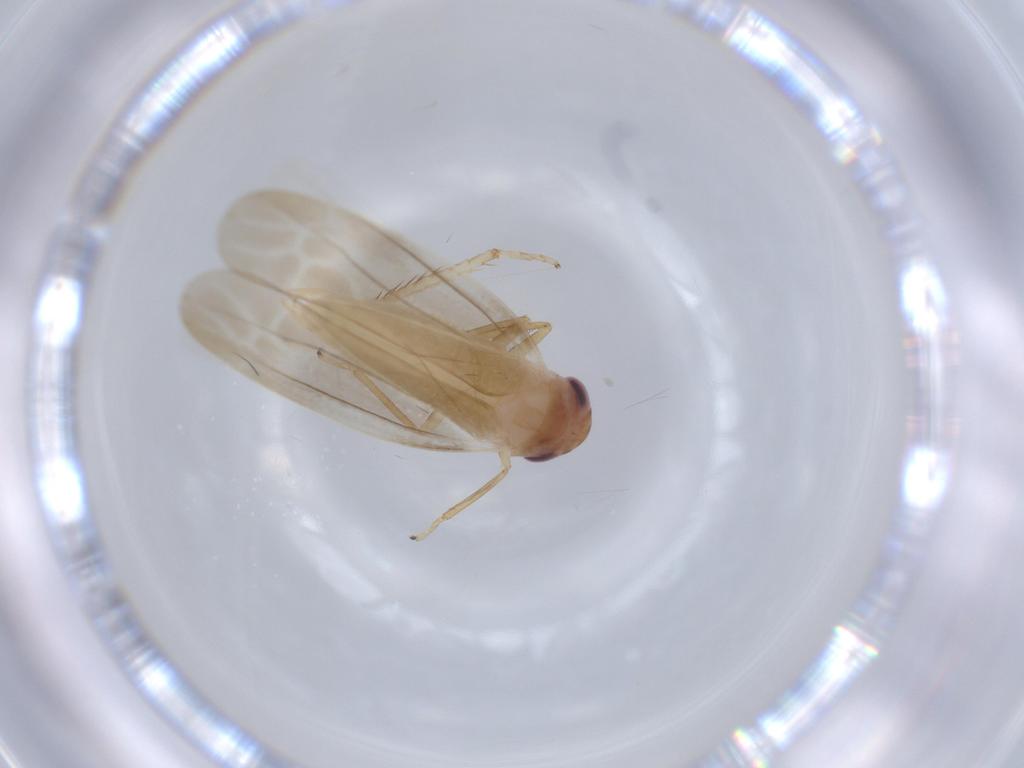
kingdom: Animalia
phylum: Arthropoda
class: Insecta
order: Hemiptera
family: Cicadellidae
